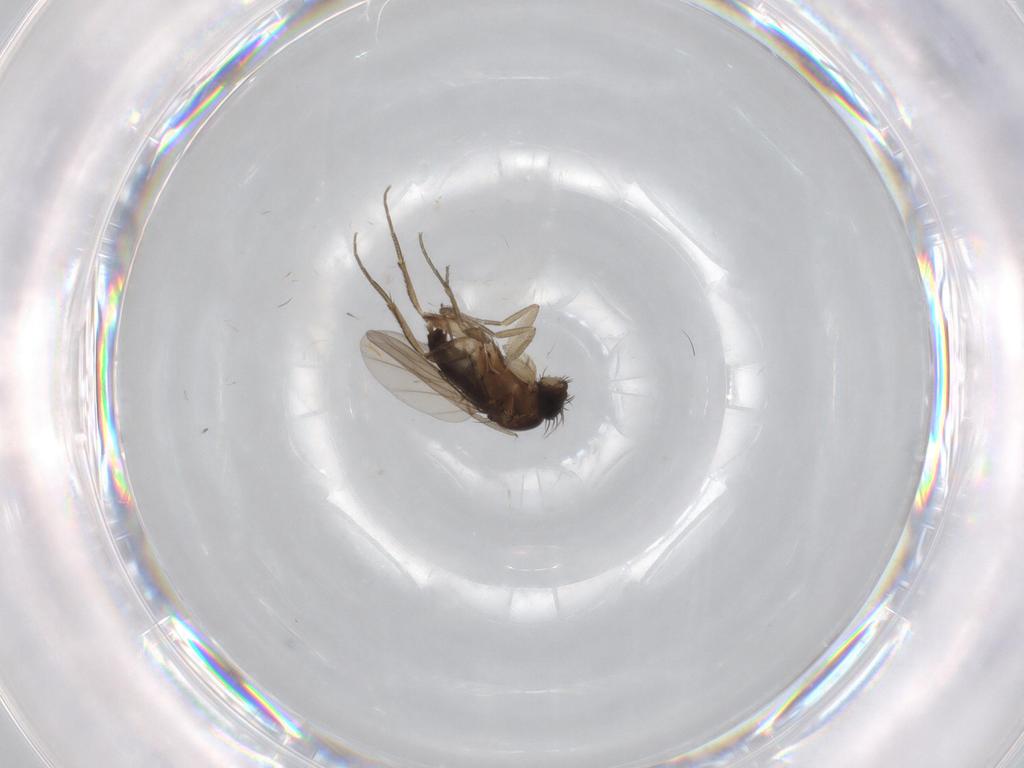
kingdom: Animalia
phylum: Arthropoda
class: Insecta
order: Diptera
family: Phoridae
